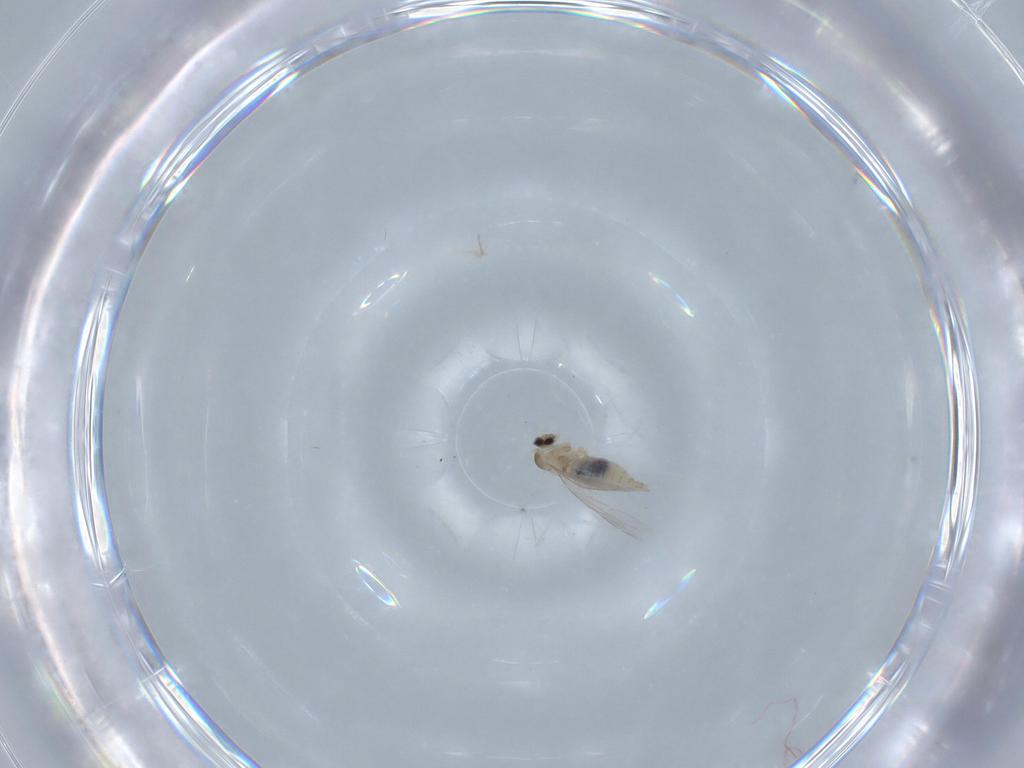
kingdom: Animalia
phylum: Arthropoda
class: Insecta
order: Diptera
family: Cecidomyiidae
